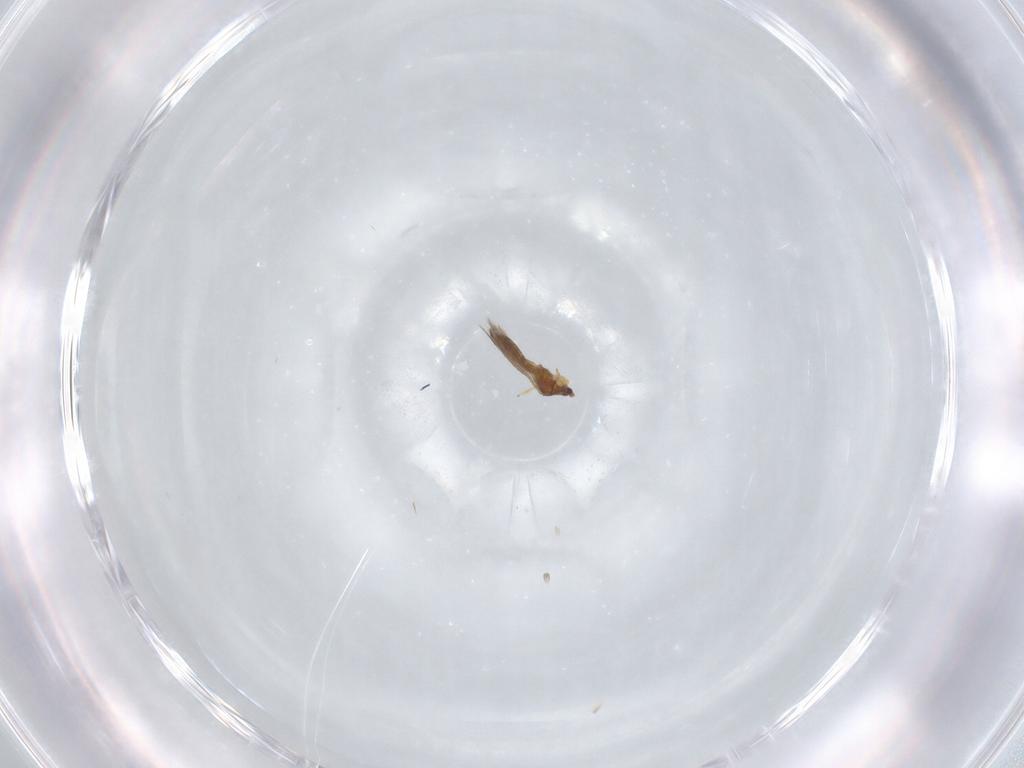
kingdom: Animalia
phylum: Arthropoda
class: Insecta
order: Thysanoptera
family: Thripidae
